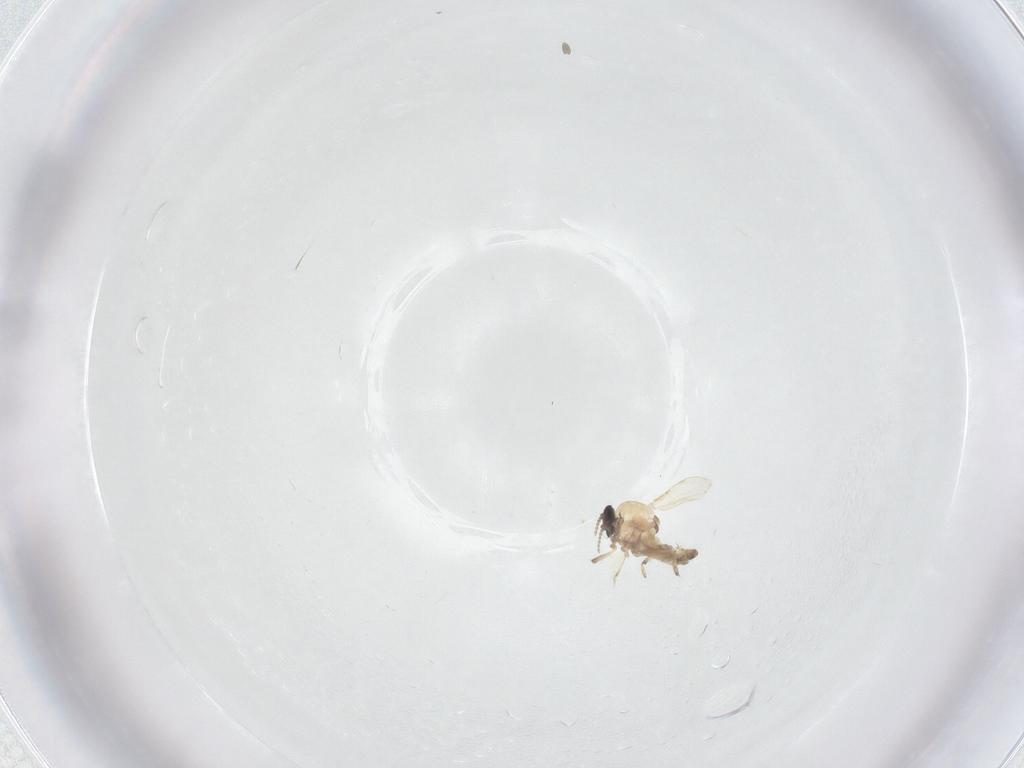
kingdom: Animalia
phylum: Arthropoda
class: Insecta
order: Diptera
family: Ceratopogonidae
